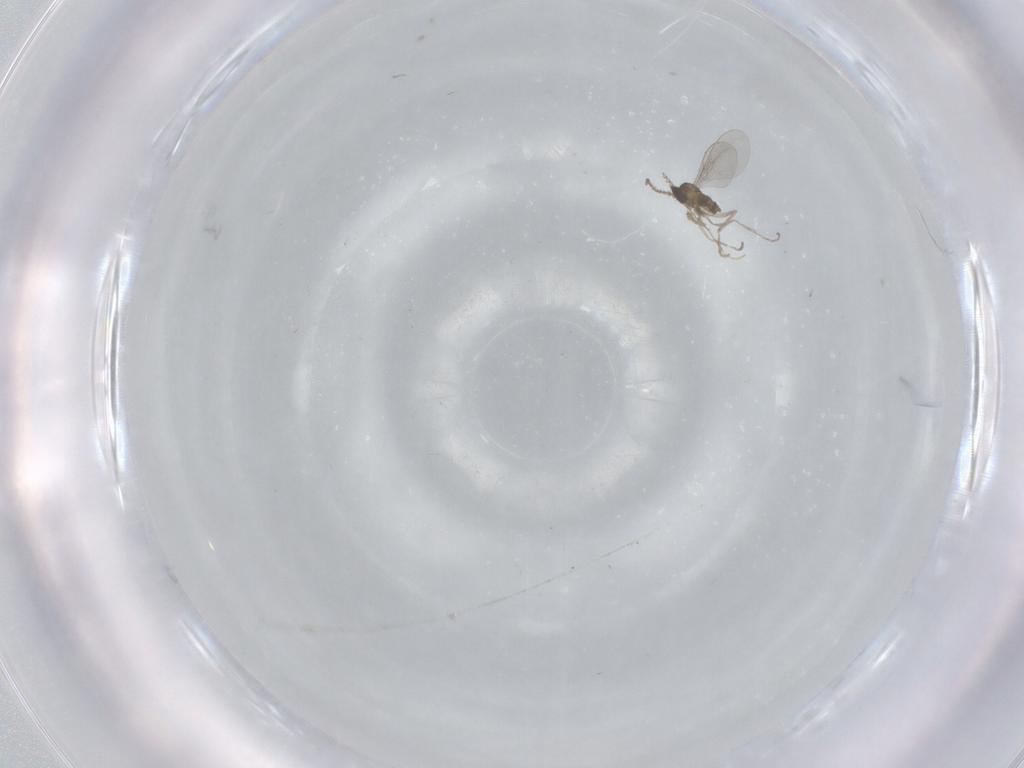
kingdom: Animalia
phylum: Arthropoda
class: Insecta
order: Diptera
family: Cecidomyiidae
